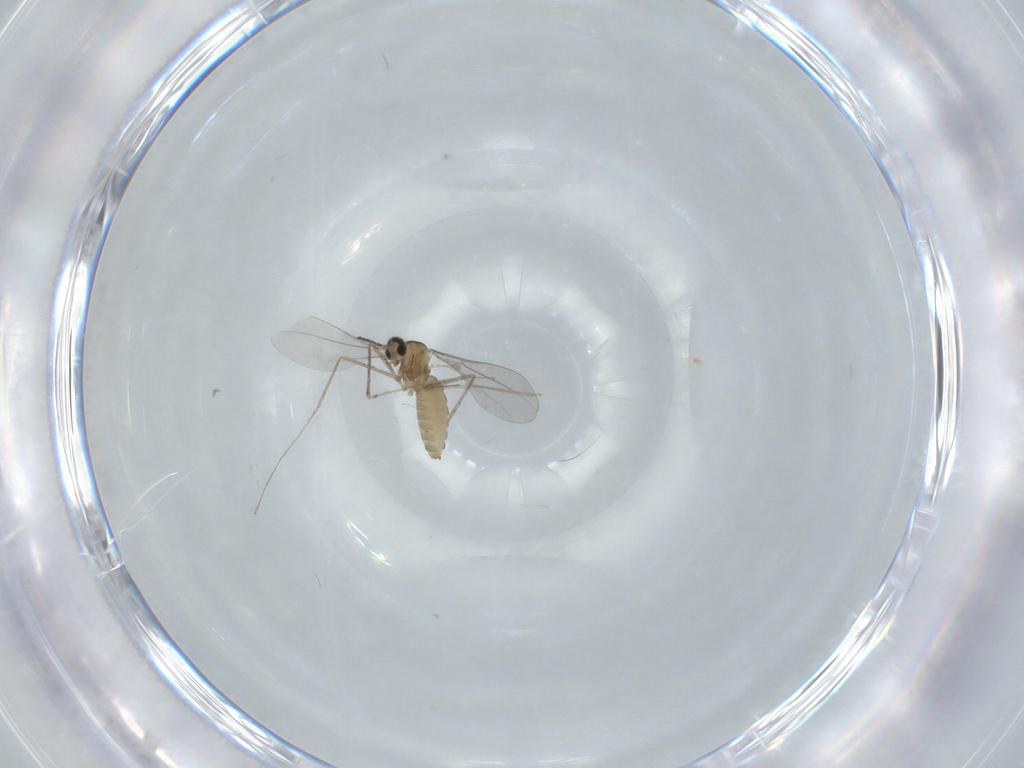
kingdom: Animalia
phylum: Arthropoda
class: Insecta
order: Diptera
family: Cecidomyiidae
